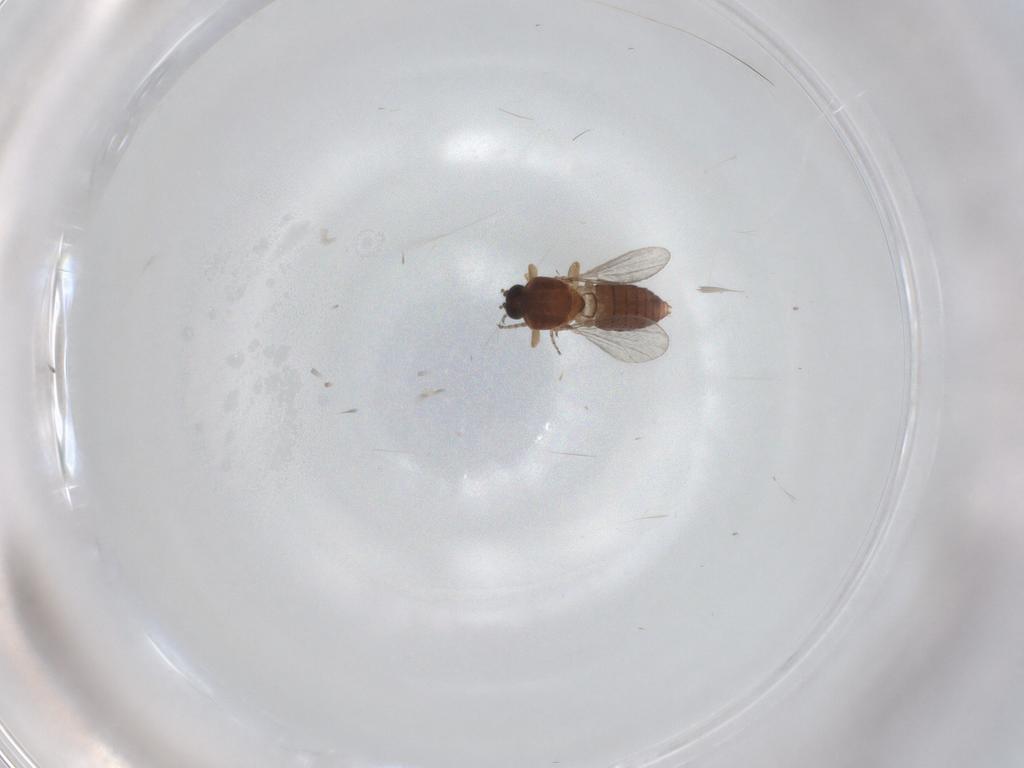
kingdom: Animalia
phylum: Arthropoda
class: Insecta
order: Diptera
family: Ceratopogonidae
